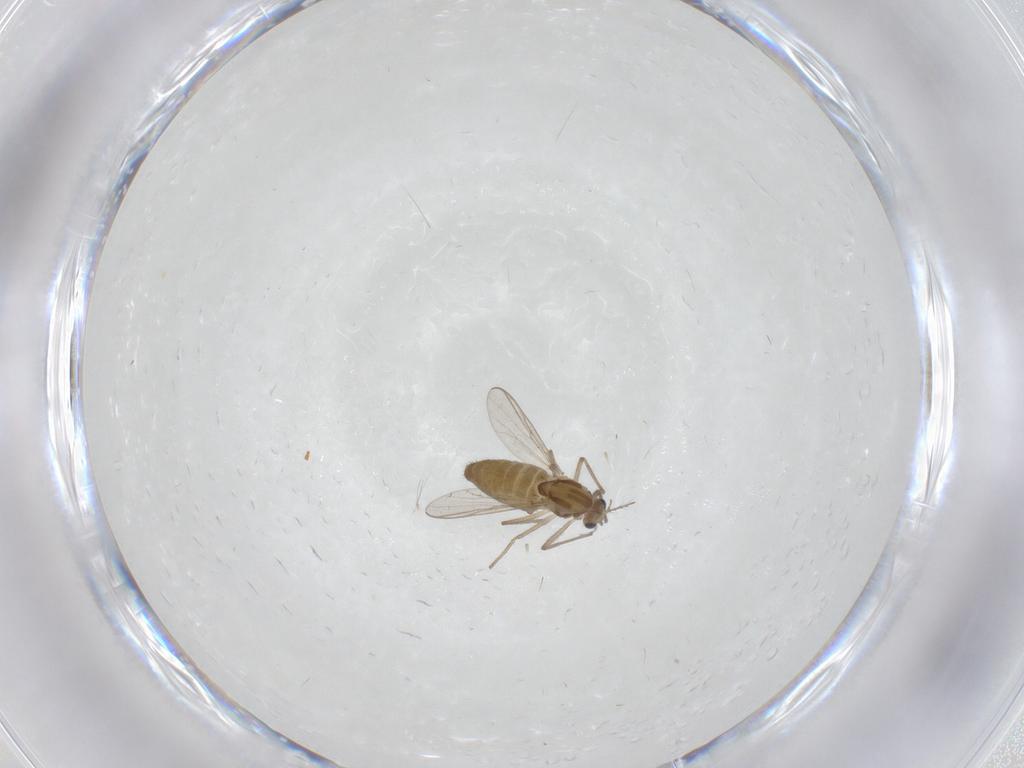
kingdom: Animalia
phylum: Arthropoda
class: Insecta
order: Diptera
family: Chironomidae
